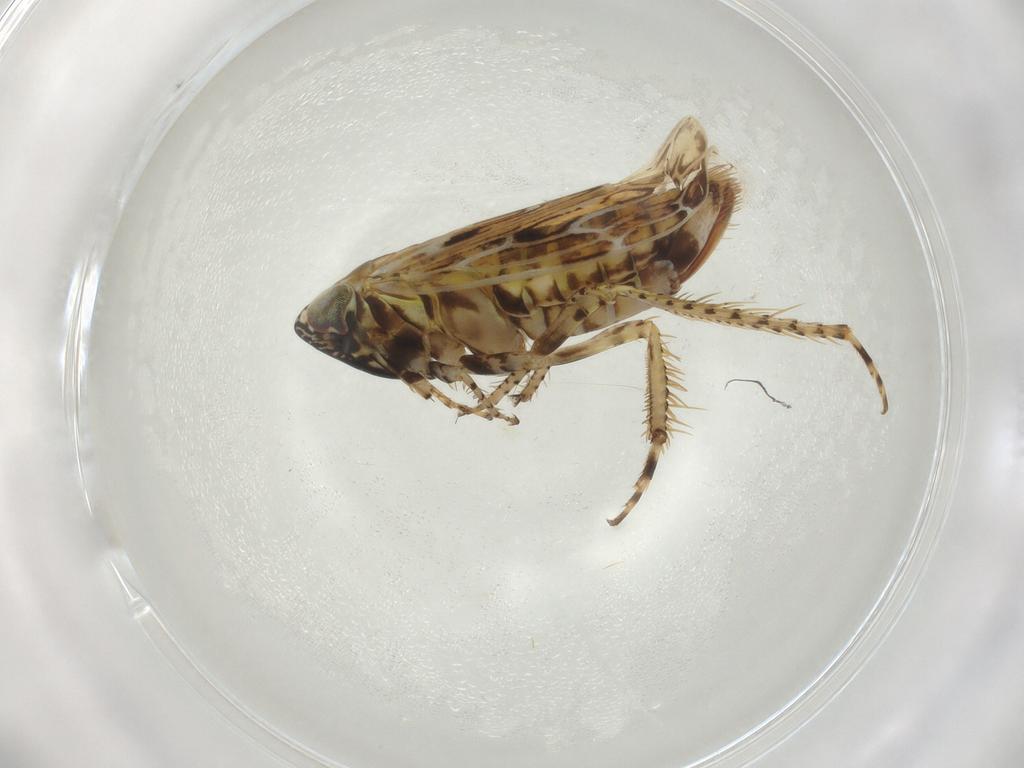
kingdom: Animalia
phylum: Arthropoda
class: Insecta
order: Hemiptera
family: Cicadellidae
